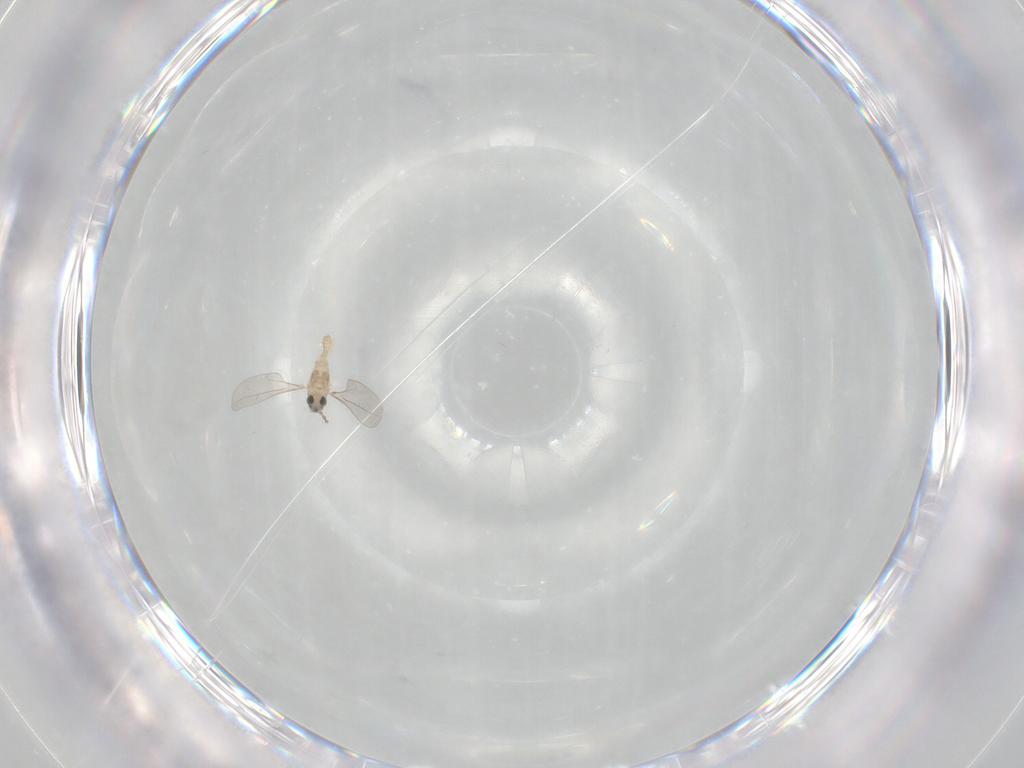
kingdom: Animalia
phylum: Arthropoda
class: Insecta
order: Diptera
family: Cecidomyiidae
